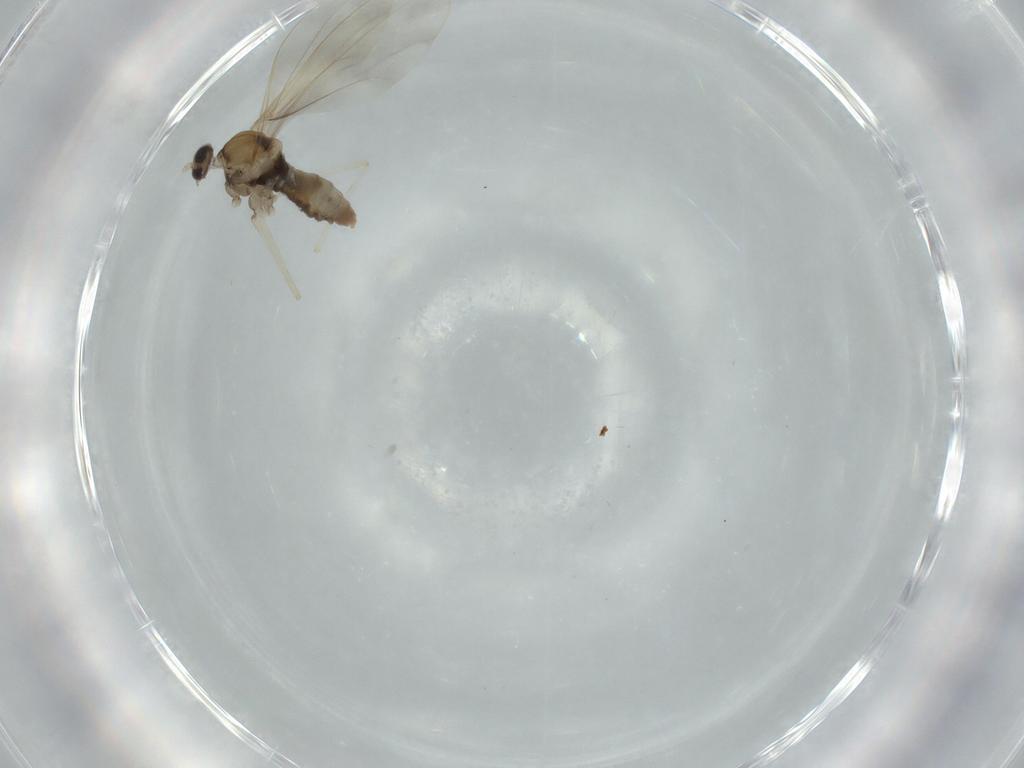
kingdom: Animalia
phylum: Arthropoda
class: Insecta
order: Diptera
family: Cecidomyiidae
